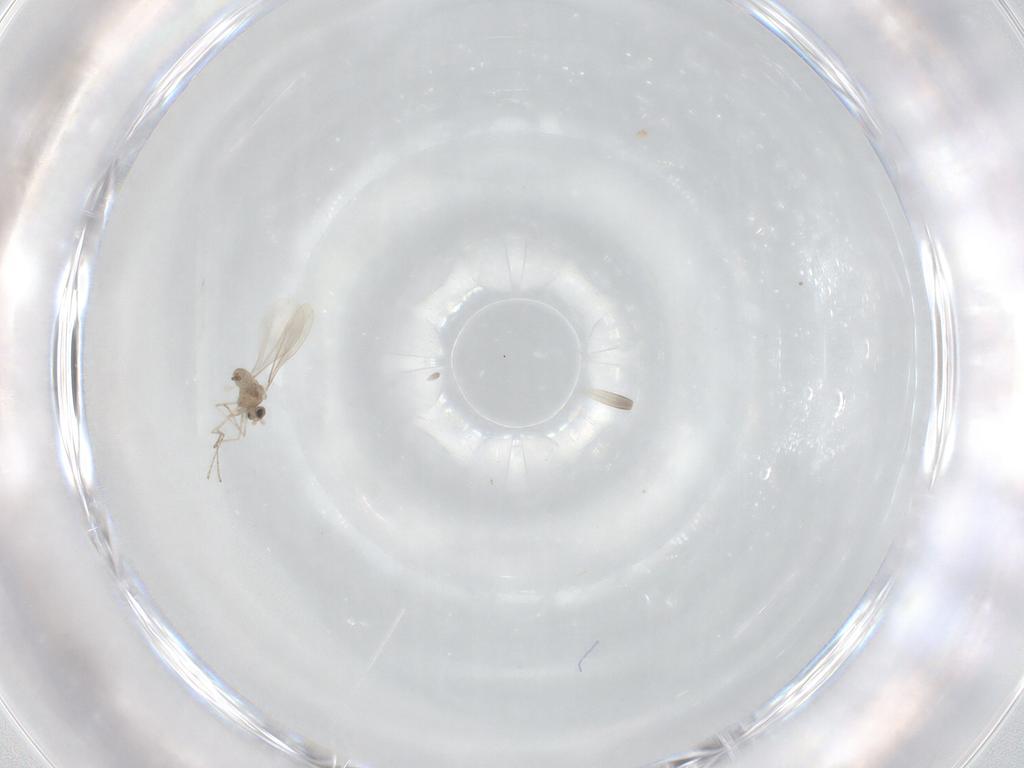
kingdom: Animalia
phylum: Arthropoda
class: Insecta
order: Diptera
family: Cecidomyiidae
